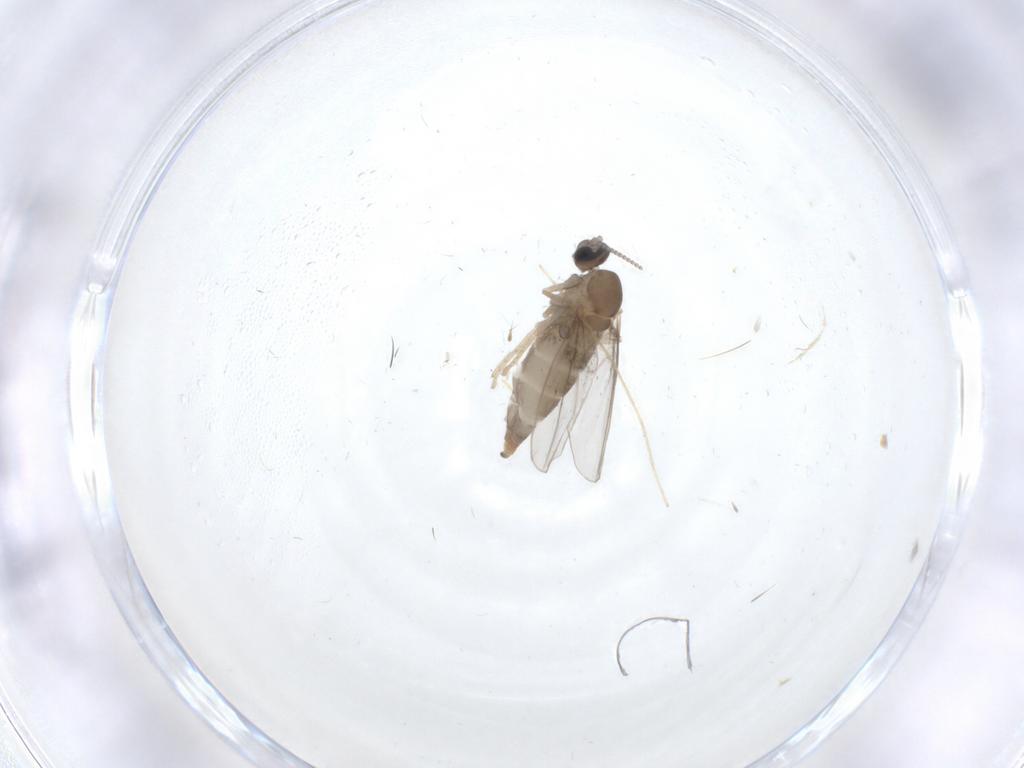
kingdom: Animalia
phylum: Arthropoda
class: Insecta
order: Diptera
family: Cecidomyiidae
